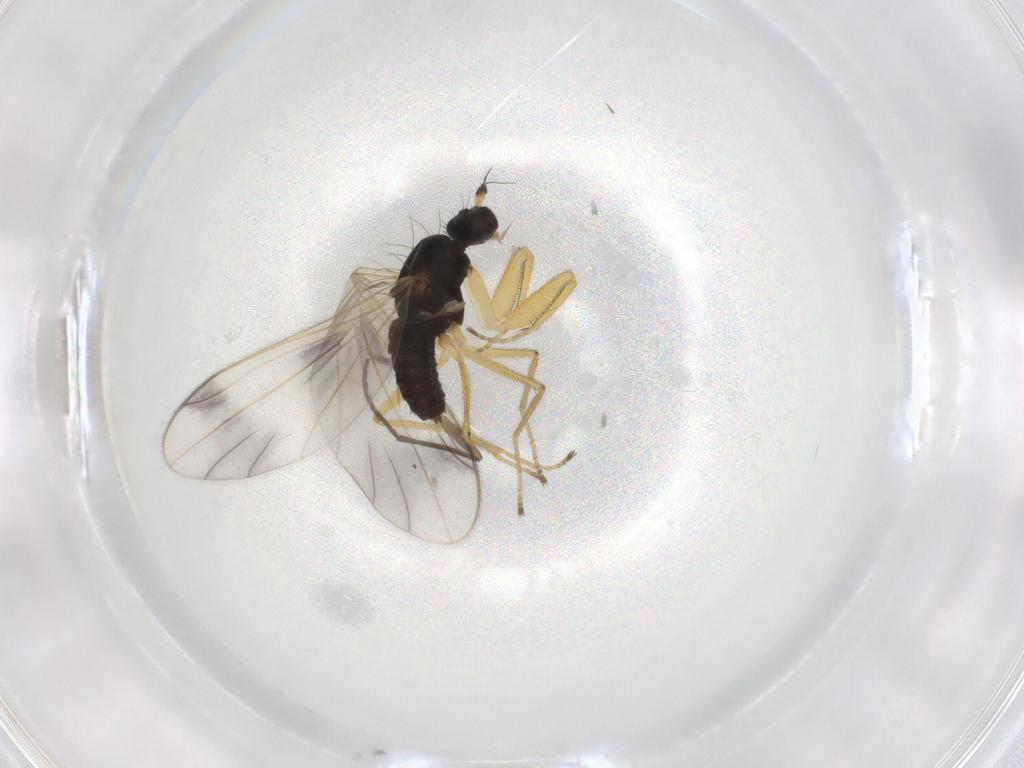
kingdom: Animalia
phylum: Arthropoda
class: Insecta
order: Diptera
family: Empididae
